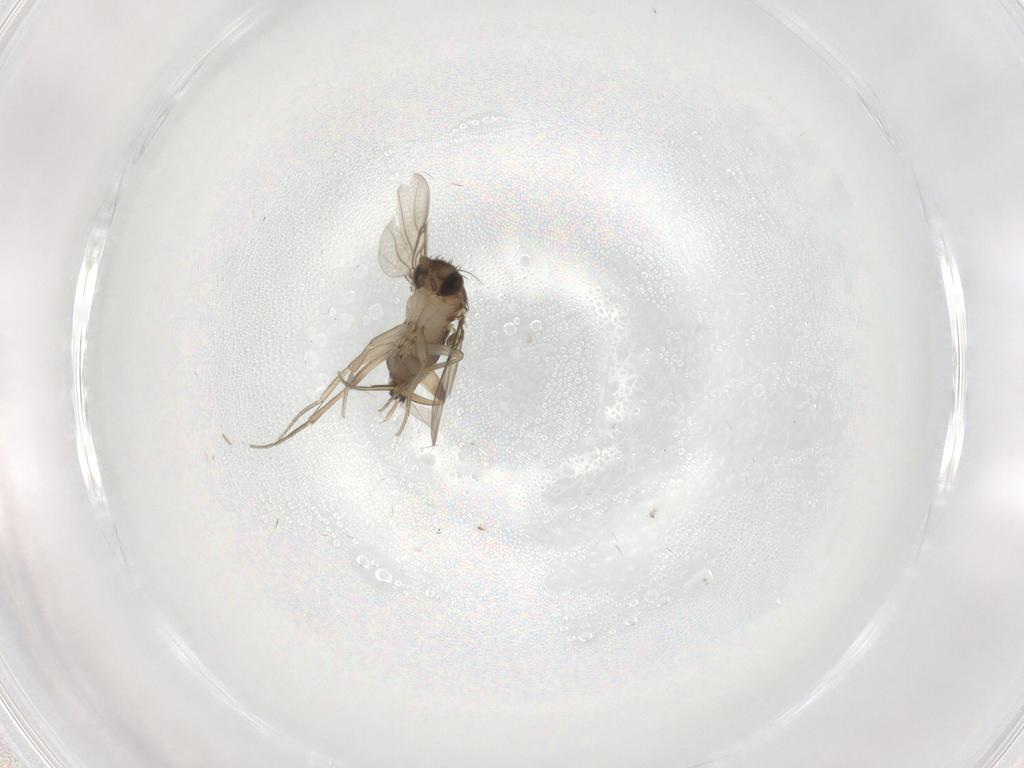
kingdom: Animalia
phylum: Arthropoda
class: Insecta
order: Diptera
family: Phoridae
